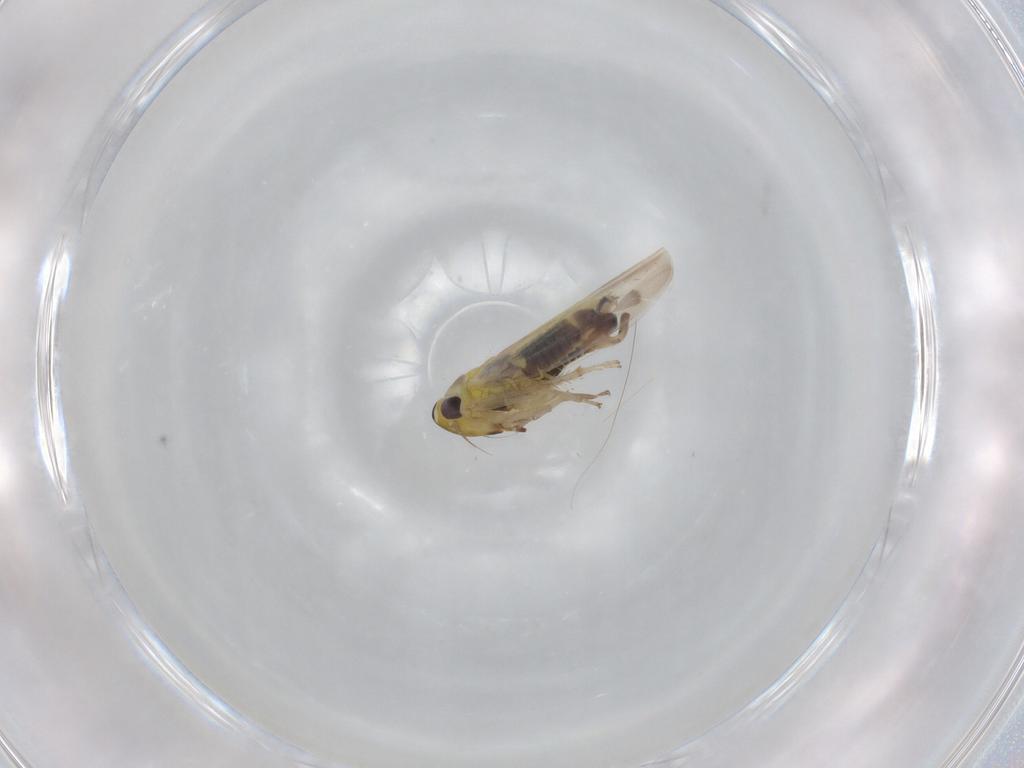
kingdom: Animalia
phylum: Arthropoda
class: Insecta
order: Hemiptera
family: Cicadellidae
